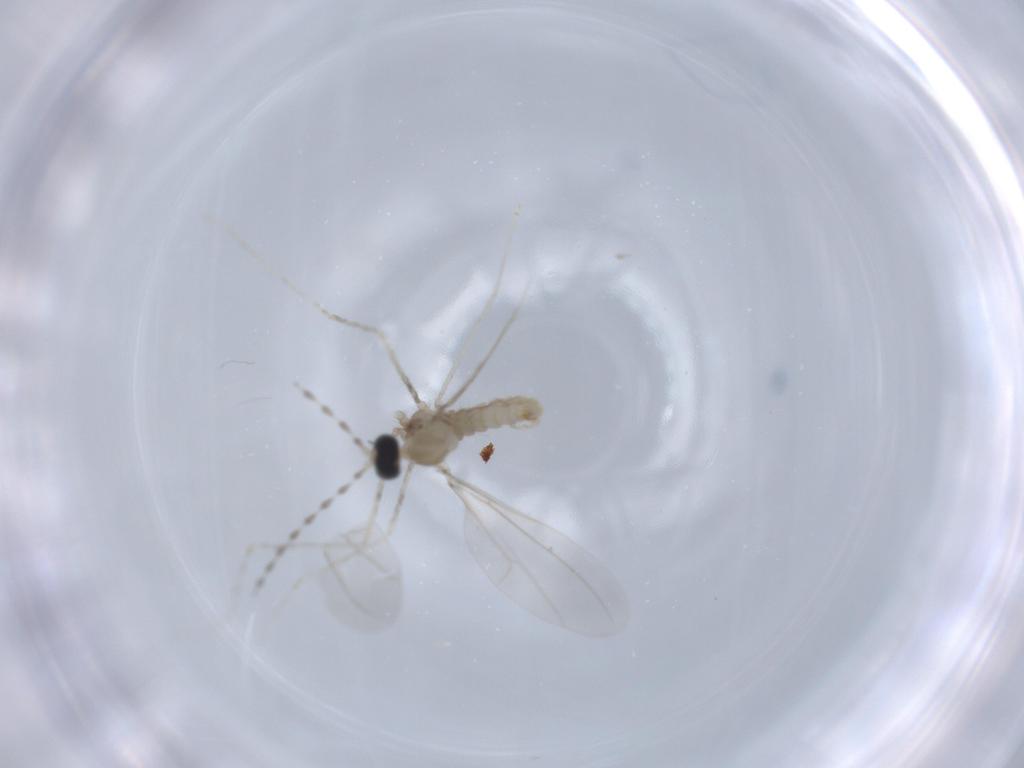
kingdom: Animalia
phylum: Arthropoda
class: Insecta
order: Diptera
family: Cecidomyiidae
